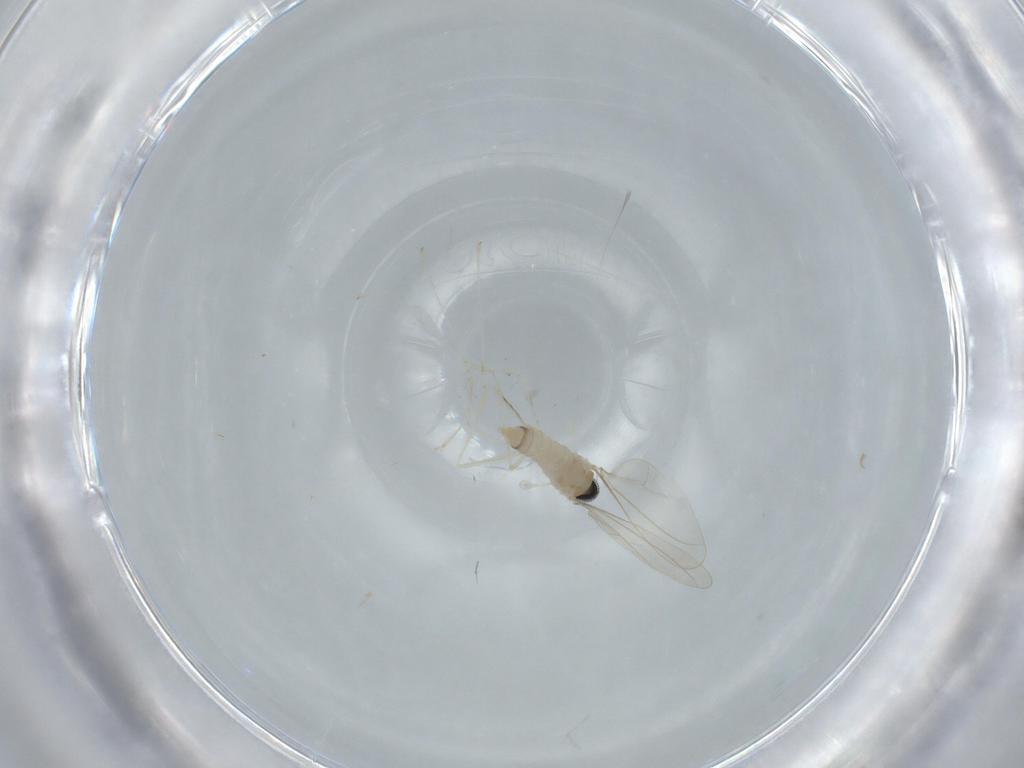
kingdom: Animalia
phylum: Arthropoda
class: Insecta
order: Diptera
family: Cecidomyiidae
